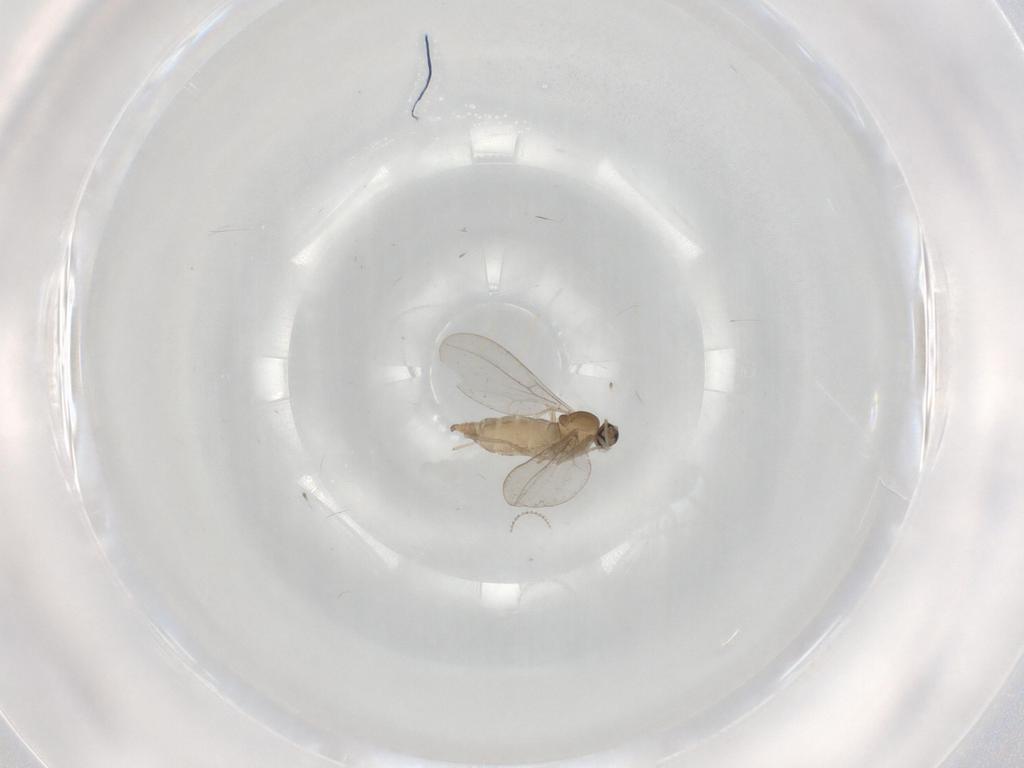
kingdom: Animalia
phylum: Arthropoda
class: Insecta
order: Diptera
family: Cecidomyiidae
